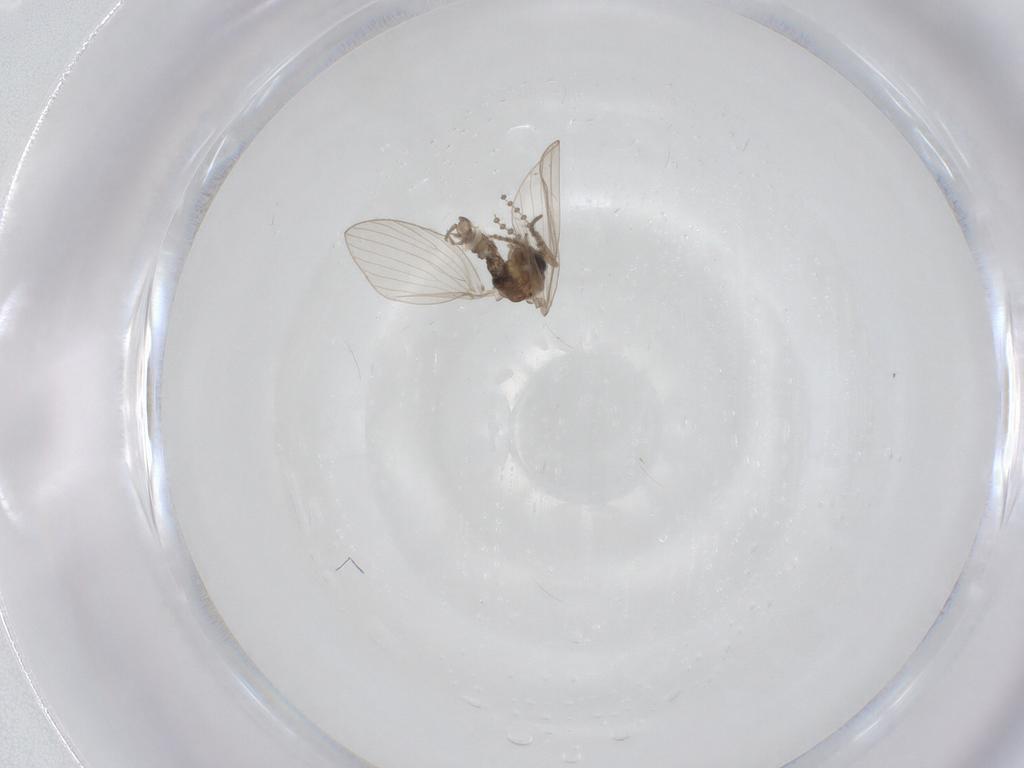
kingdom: Animalia
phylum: Arthropoda
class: Insecta
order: Diptera
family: Psychodidae
